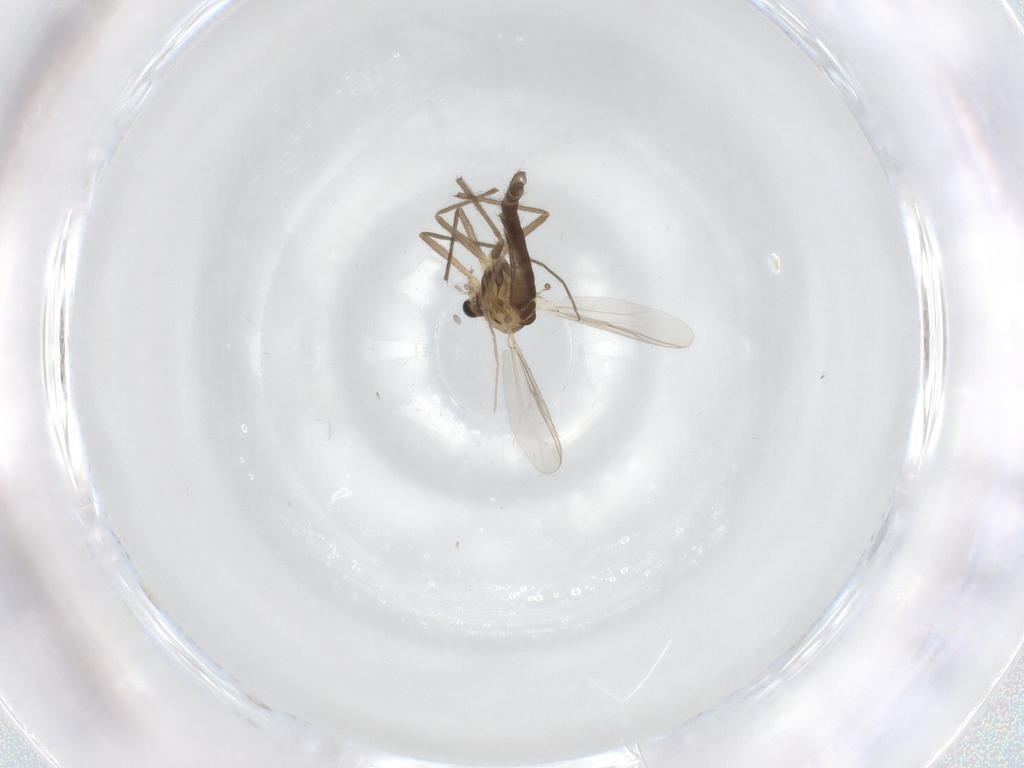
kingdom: Animalia
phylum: Arthropoda
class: Insecta
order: Diptera
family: Chironomidae
